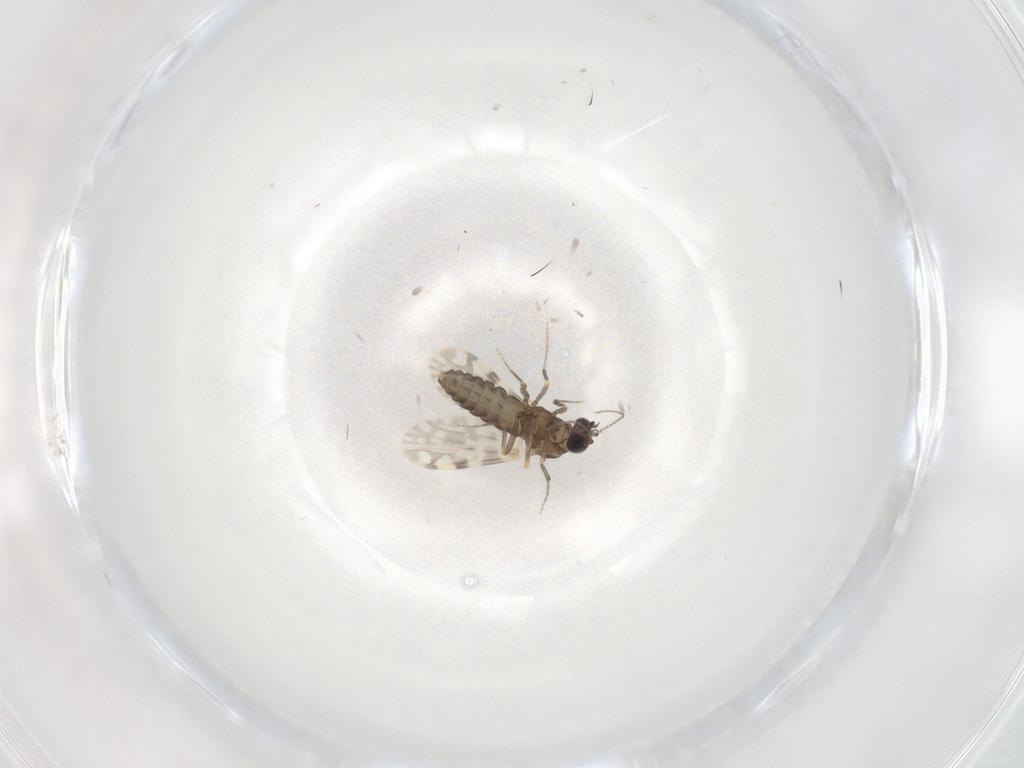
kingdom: Animalia
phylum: Arthropoda
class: Insecta
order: Diptera
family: Ceratopogonidae
